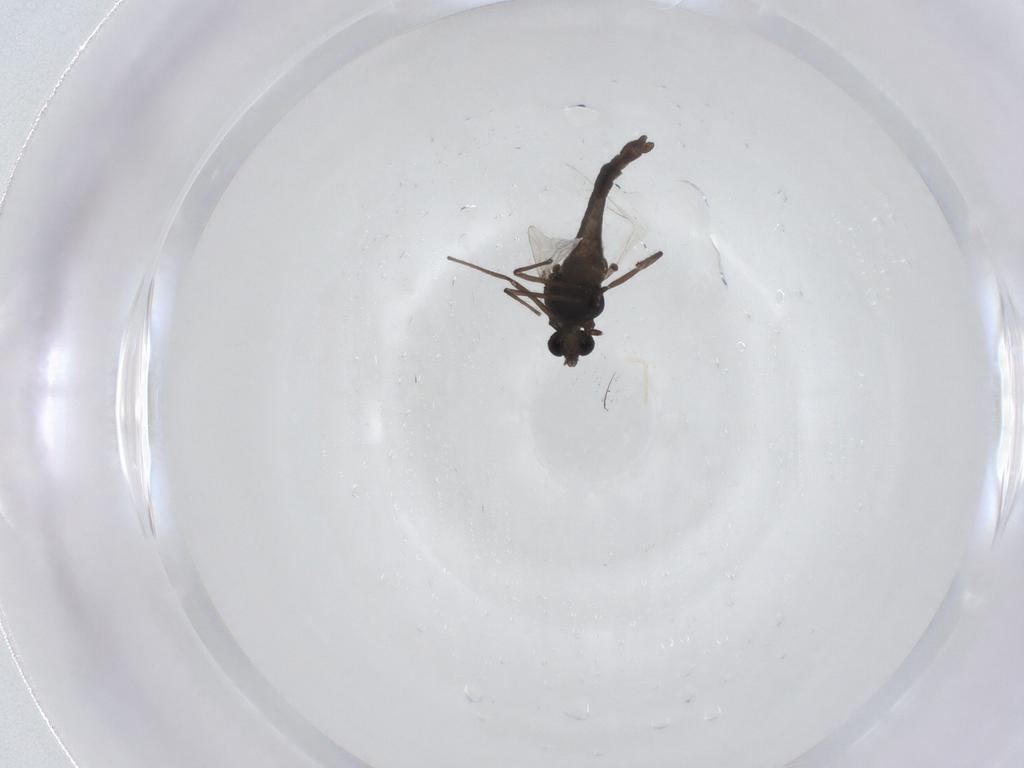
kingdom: Animalia
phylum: Arthropoda
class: Insecta
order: Diptera
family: Chironomidae
